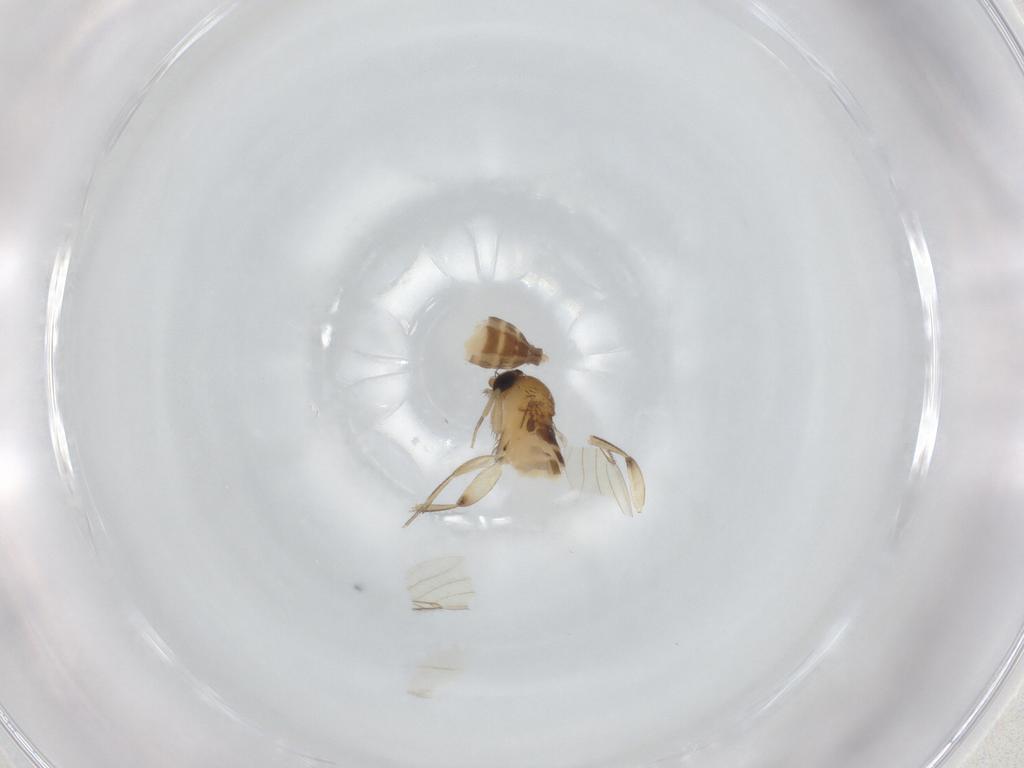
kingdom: Animalia
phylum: Arthropoda
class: Insecta
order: Diptera
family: Phoridae
